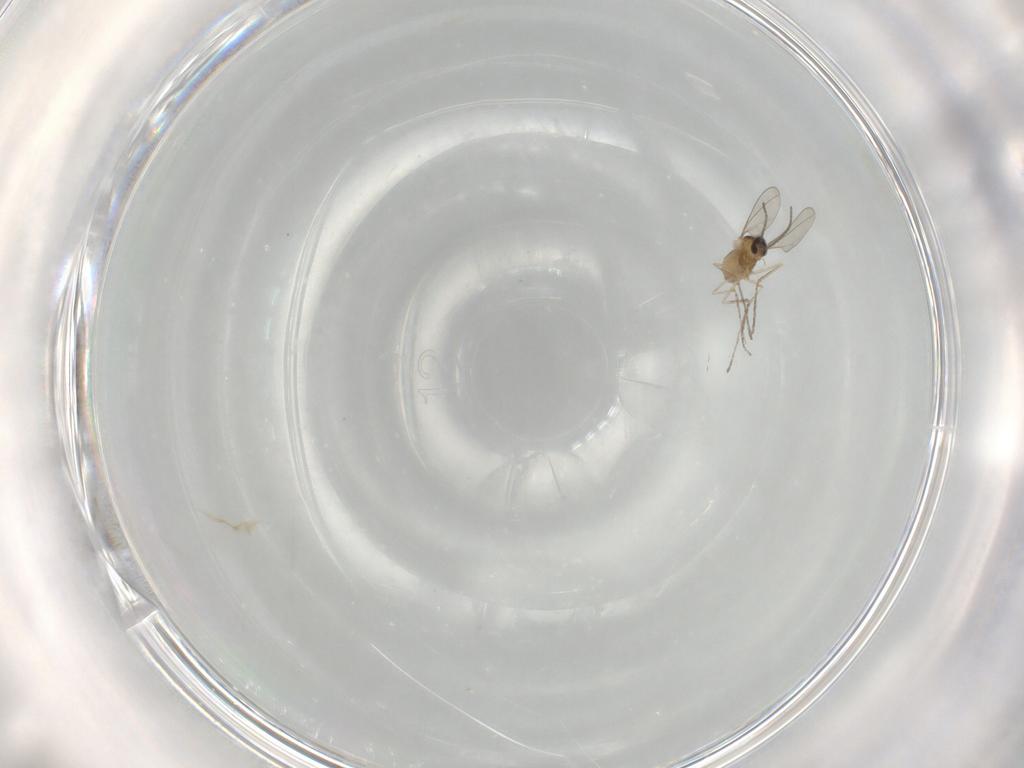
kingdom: Animalia
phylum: Arthropoda
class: Insecta
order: Diptera
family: Cecidomyiidae
